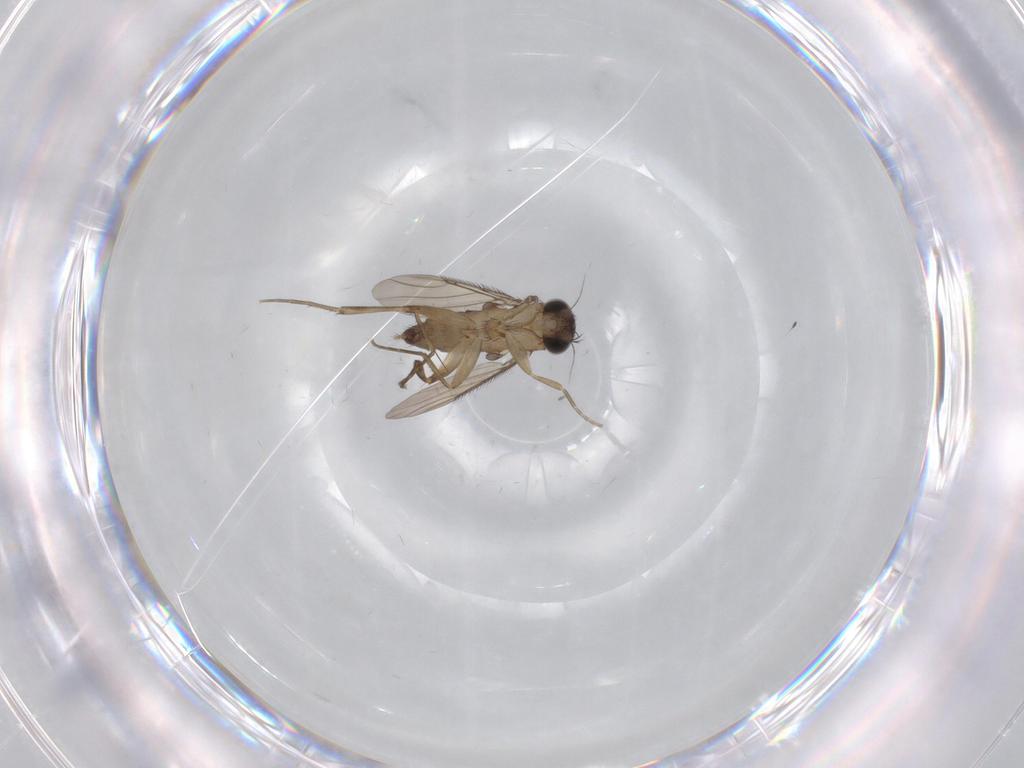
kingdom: Animalia
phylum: Arthropoda
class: Insecta
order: Diptera
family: Phoridae
